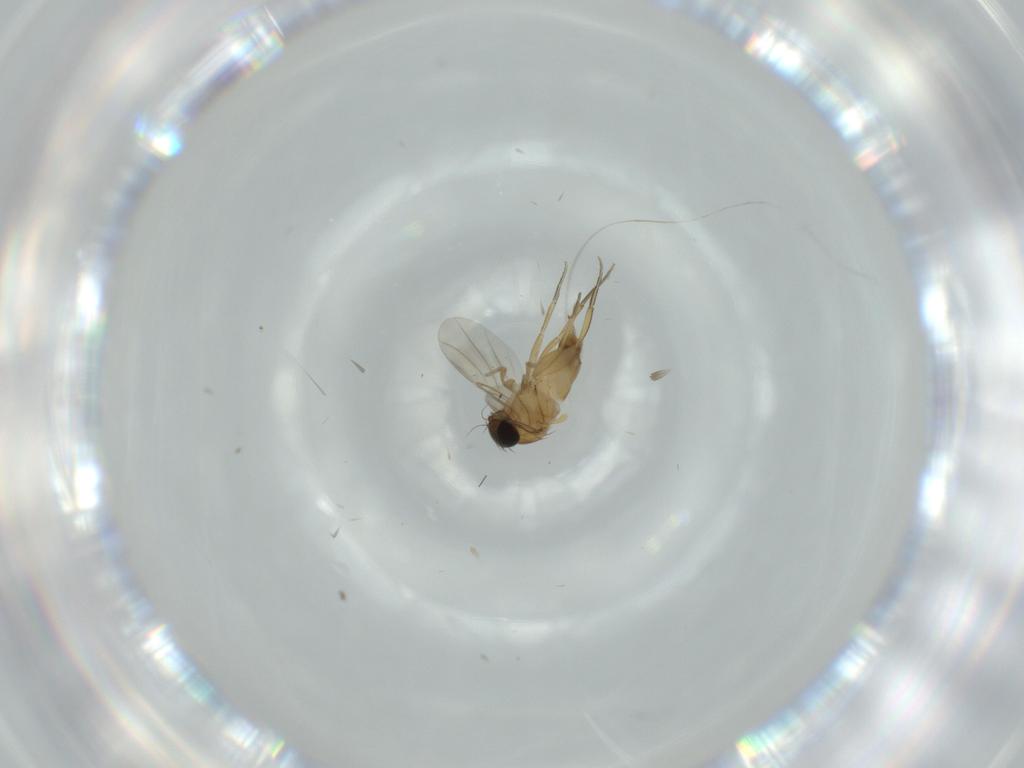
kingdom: Animalia
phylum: Arthropoda
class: Insecta
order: Diptera
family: Phoridae
